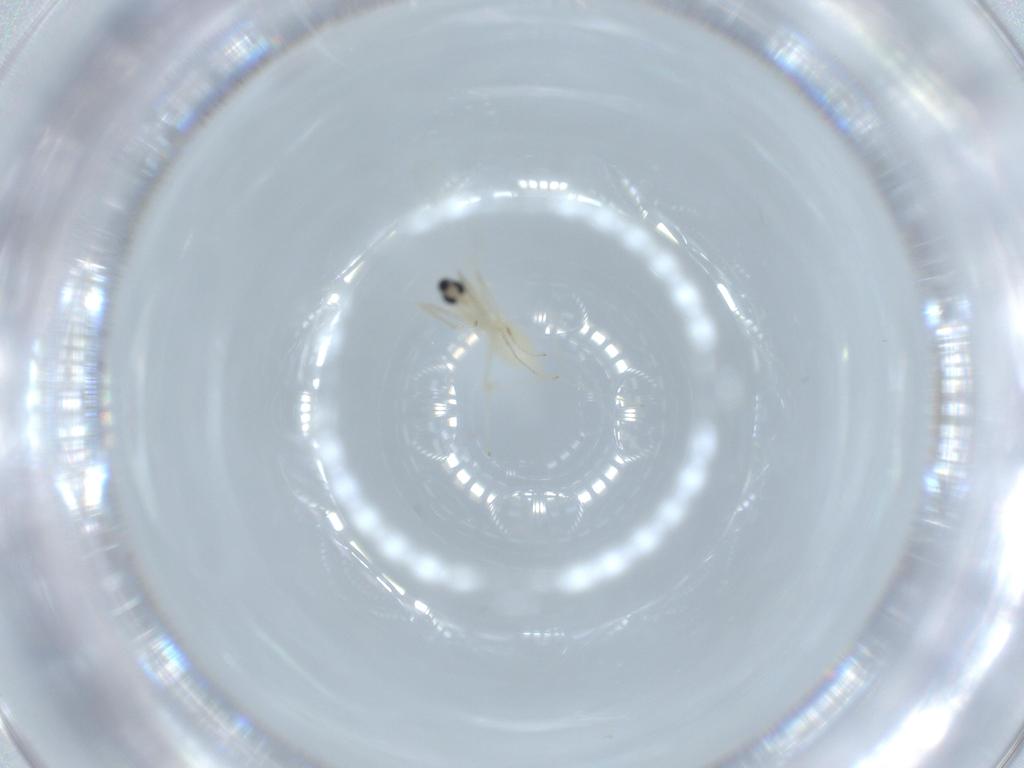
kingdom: Animalia
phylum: Arthropoda
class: Insecta
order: Diptera
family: Cecidomyiidae
